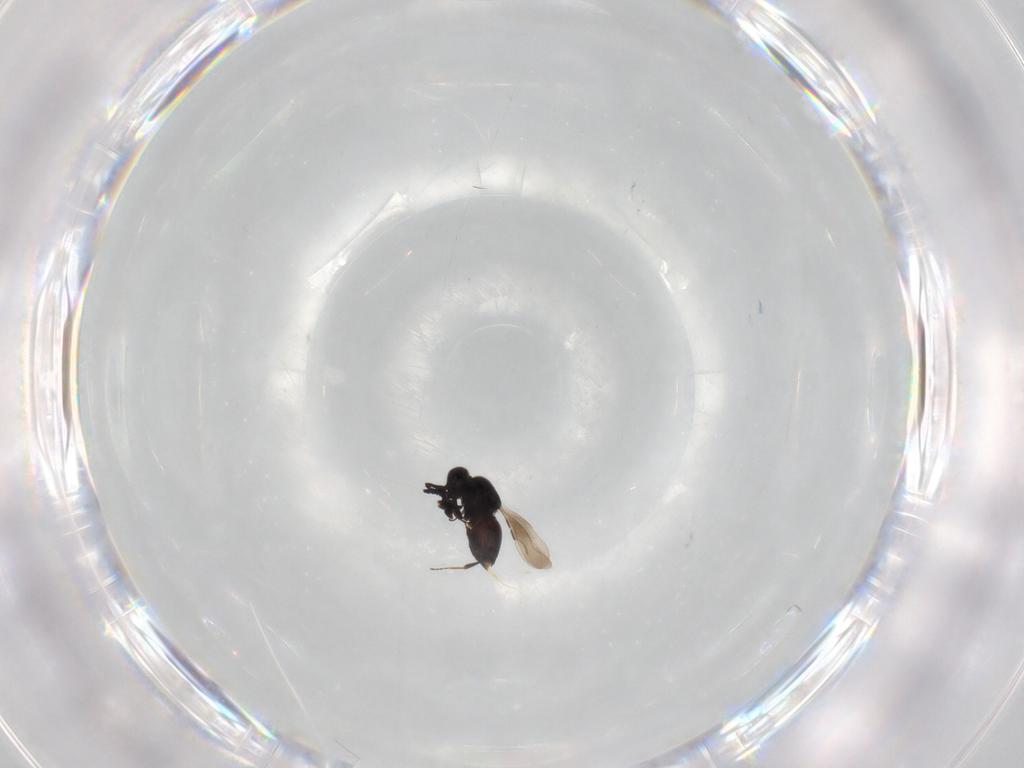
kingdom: Animalia
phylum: Arthropoda
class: Insecta
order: Hymenoptera
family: Encyrtidae
